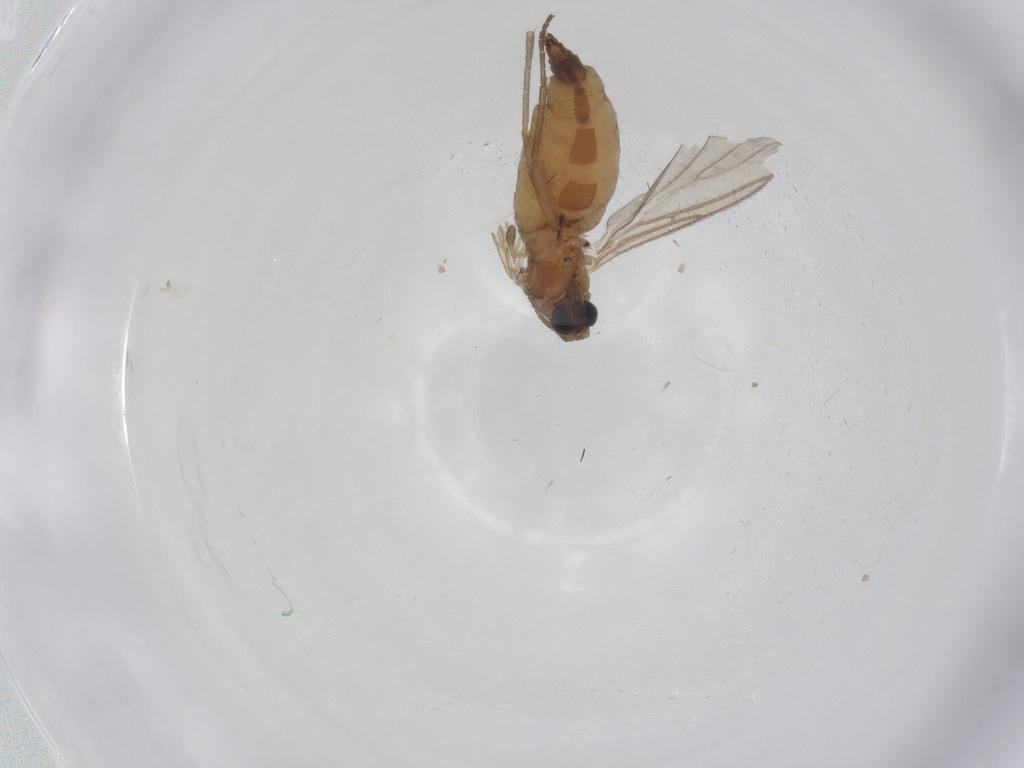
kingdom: Animalia
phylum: Arthropoda
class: Insecta
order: Diptera
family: Sciaridae
